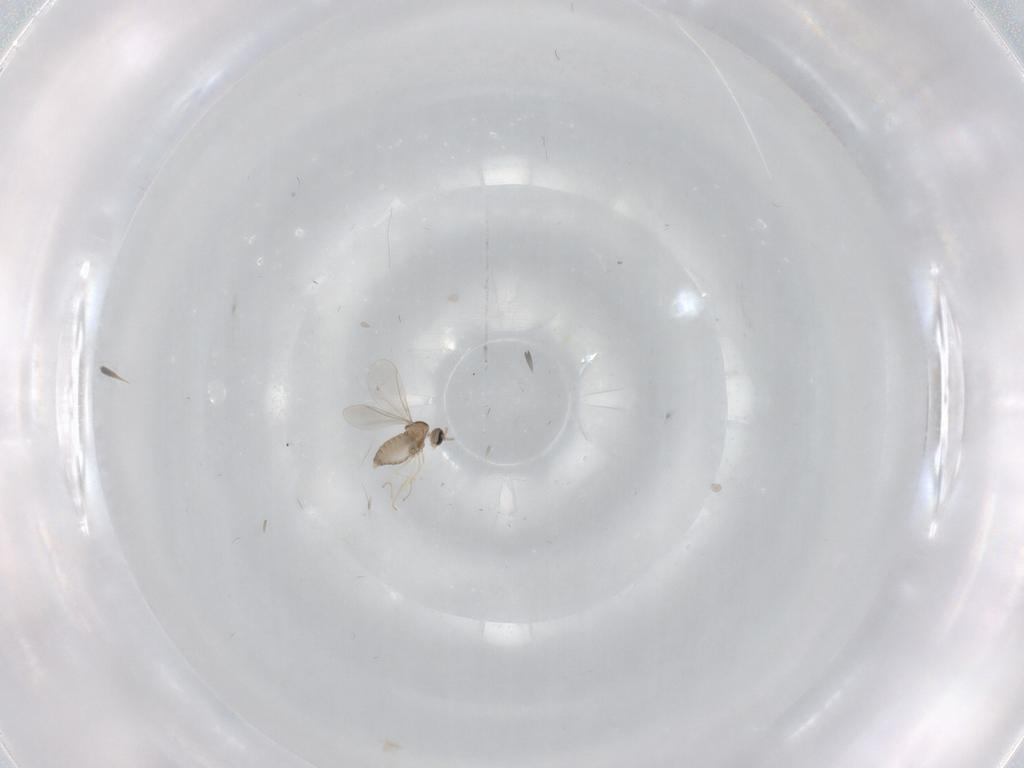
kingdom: Animalia
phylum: Arthropoda
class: Insecta
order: Diptera
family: Cecidomyiidae
